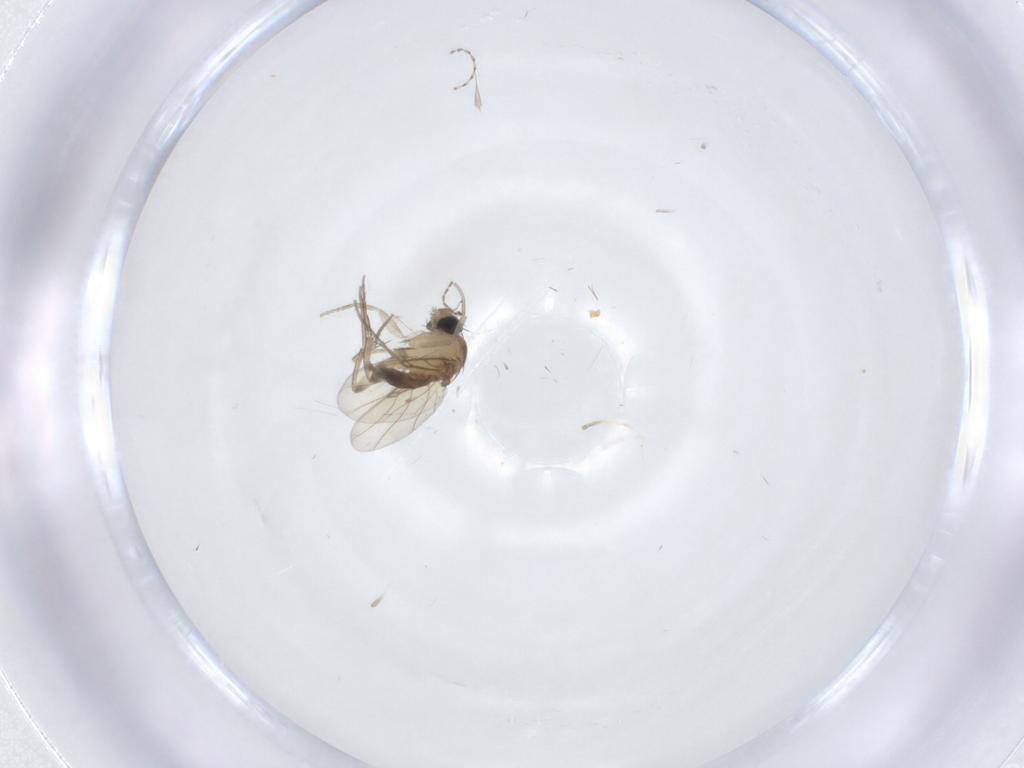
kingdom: Animalia
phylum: Arthropoda
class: Insecta
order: Diptera
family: Phoridae
